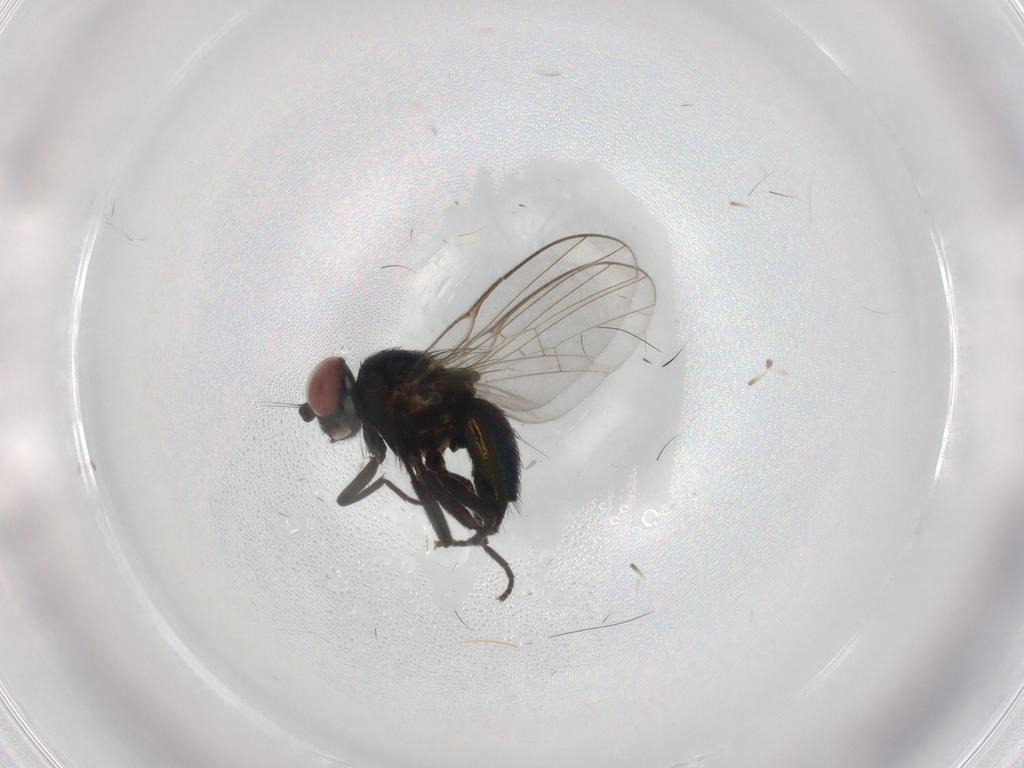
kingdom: Animalia
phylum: Arthropoda
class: Insecta
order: Diptera
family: Agromyzidae
